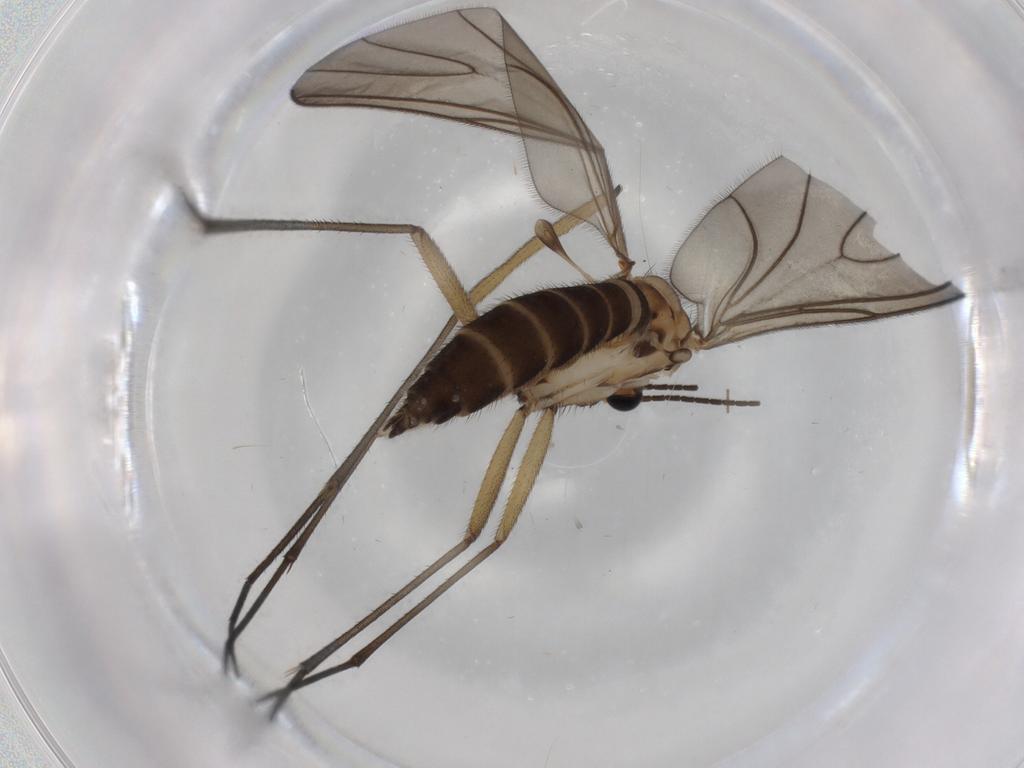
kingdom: Animalia
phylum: Arthropoda
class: Insecta
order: Diptera
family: Sciaridae
